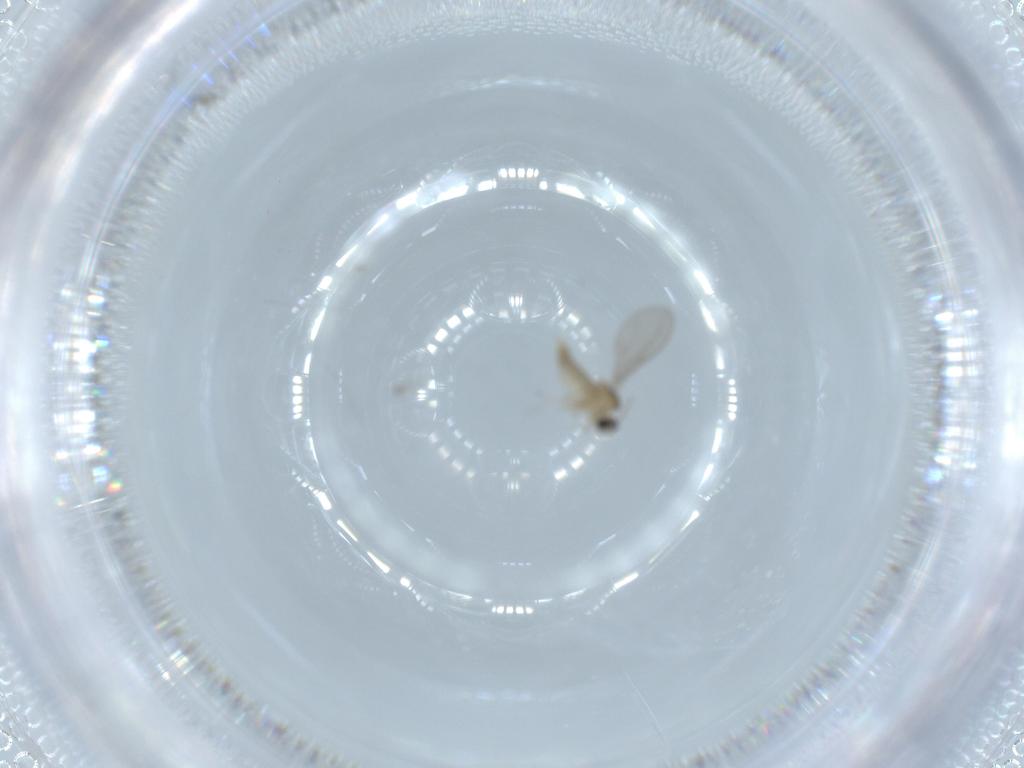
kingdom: Animalia
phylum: Arthropoda
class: Insecta
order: Diptera
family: Cecidomyiidae
